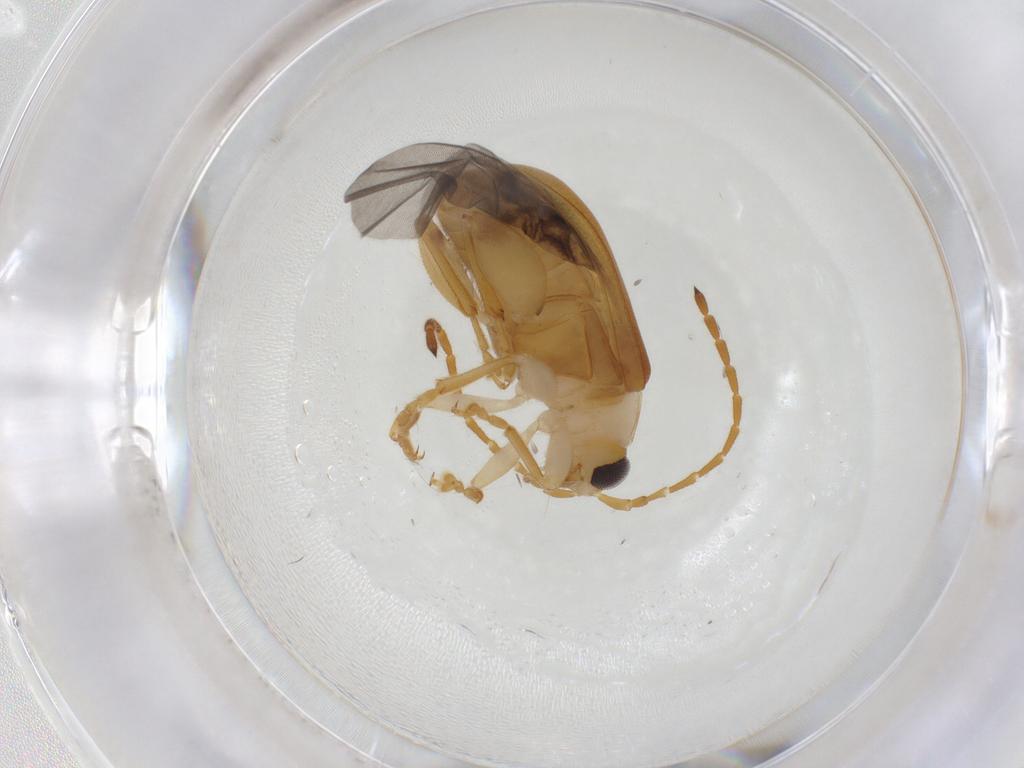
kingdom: Animalia
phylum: Arthropoda
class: Insecta
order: Coleoptera
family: Chrysomelidae
